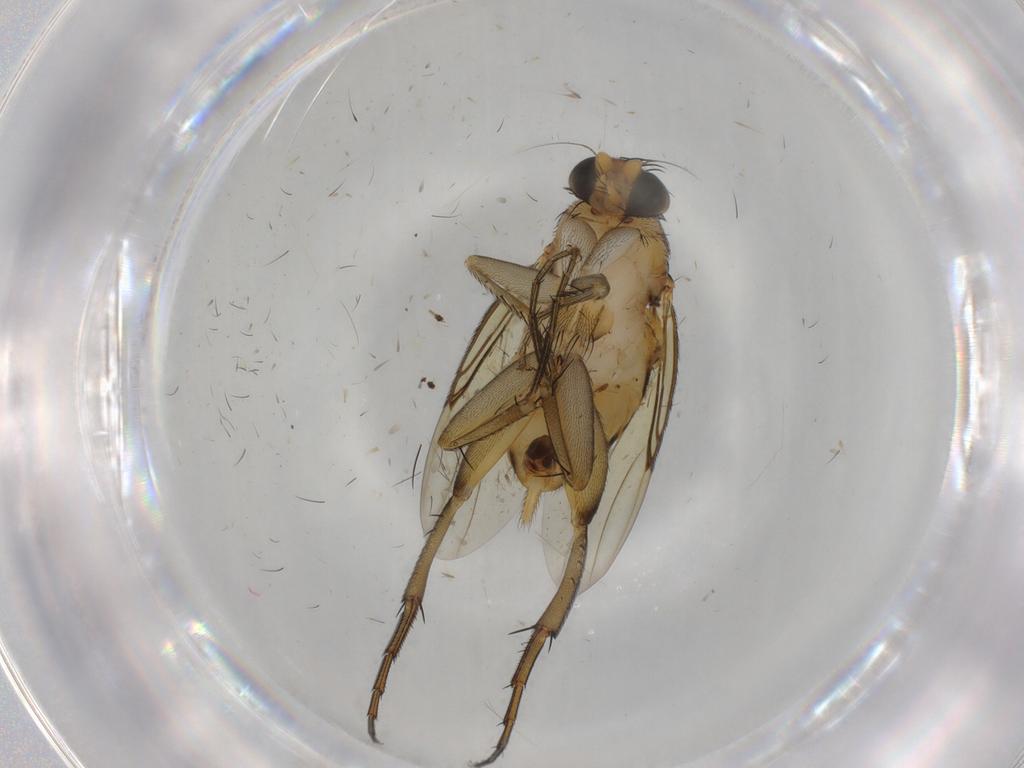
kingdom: Animalia
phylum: Arthropoda
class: Insecta
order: Diptera
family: Phoridae
